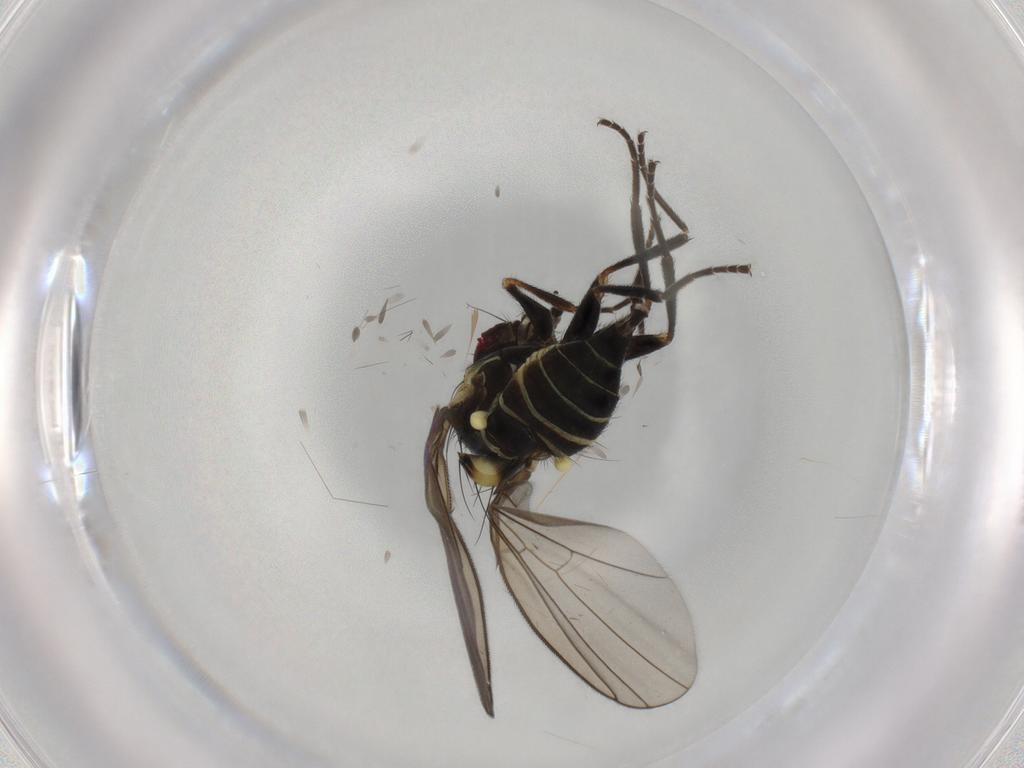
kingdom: Animalia
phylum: Arthropoda
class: Insecta
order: Diptera
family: Agromyzidae
